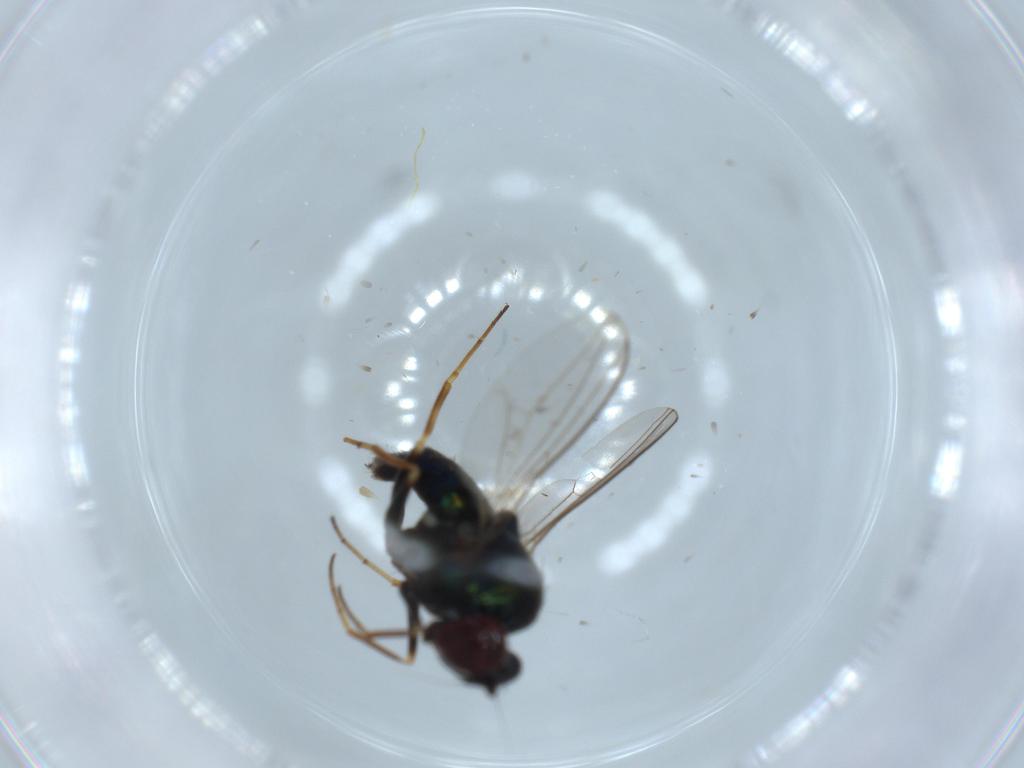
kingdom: Animalia
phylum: Arthropoda
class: Insecta
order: Diptera
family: Dolichopodidae
